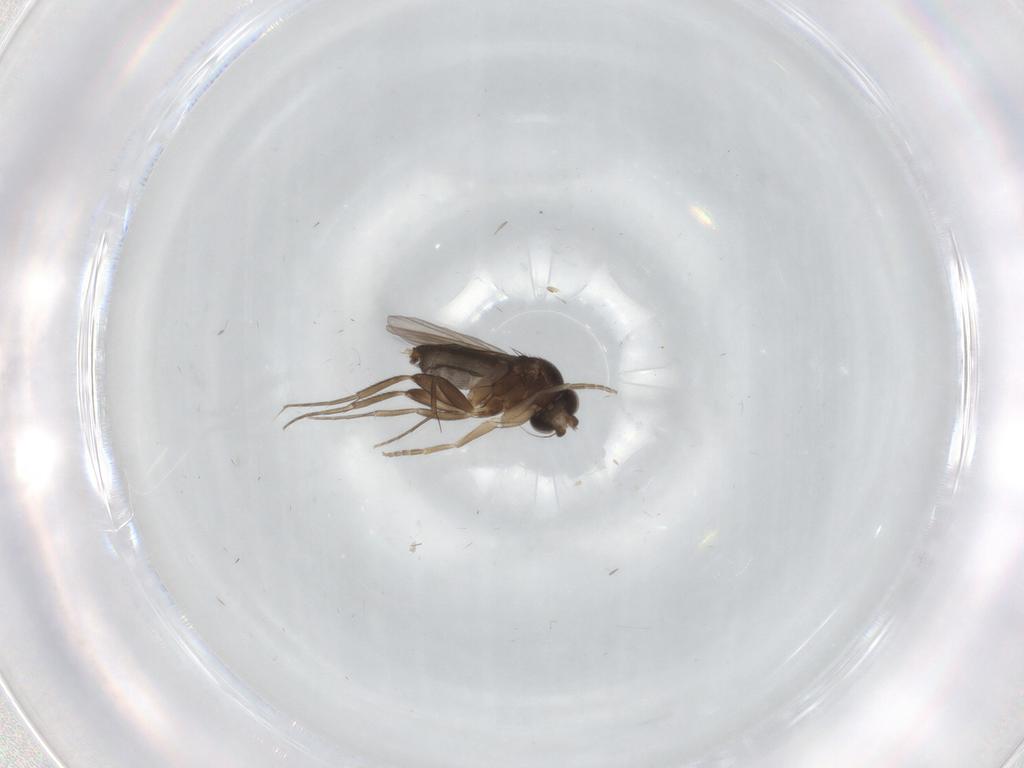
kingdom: Animalia
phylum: Arthropoda
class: Insecta
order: Diptera
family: Phoridae
